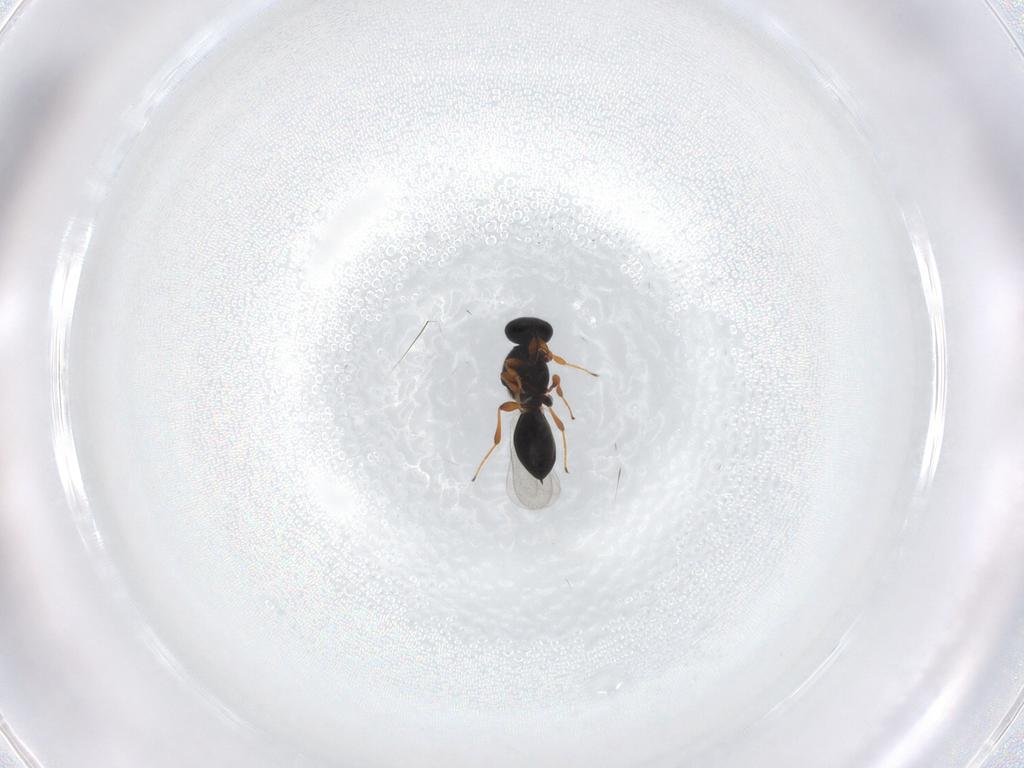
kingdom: Animalia
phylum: Arthropoda
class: Insecta
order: Hymenoptera
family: Platygastridae
